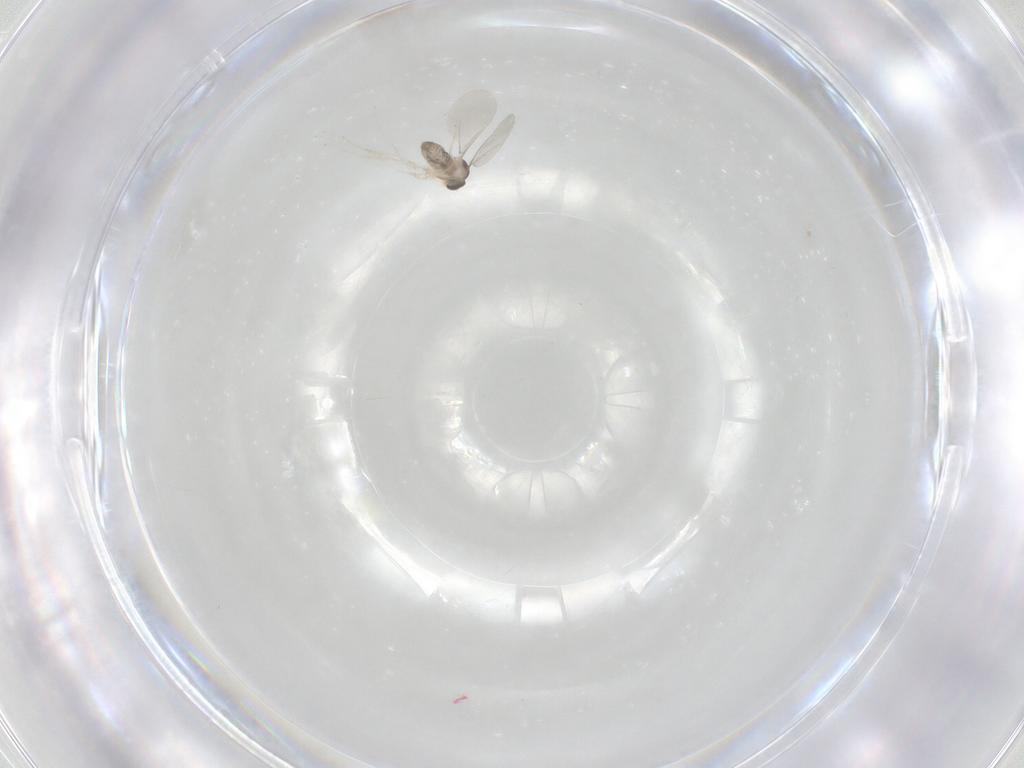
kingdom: Animalia
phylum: Arthropoda
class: Insecta
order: Diptera
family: Cecidomyiidae
